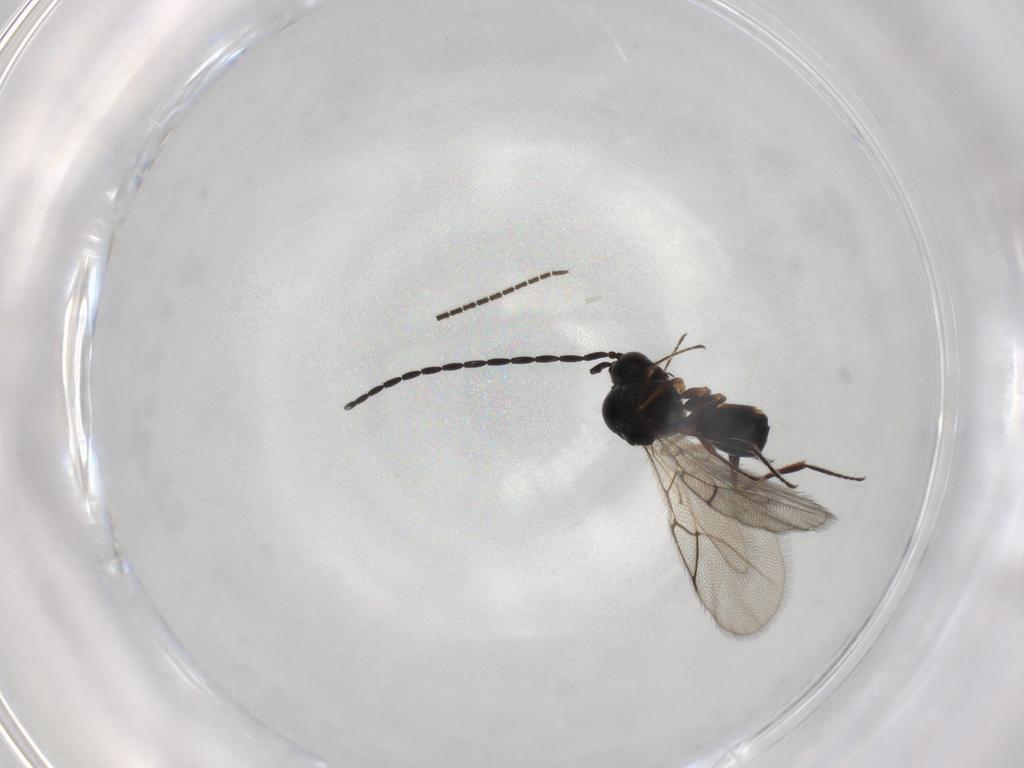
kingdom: Animalia
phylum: Arthropoda
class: Insecta
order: Hymenoptera
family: Figitidae
